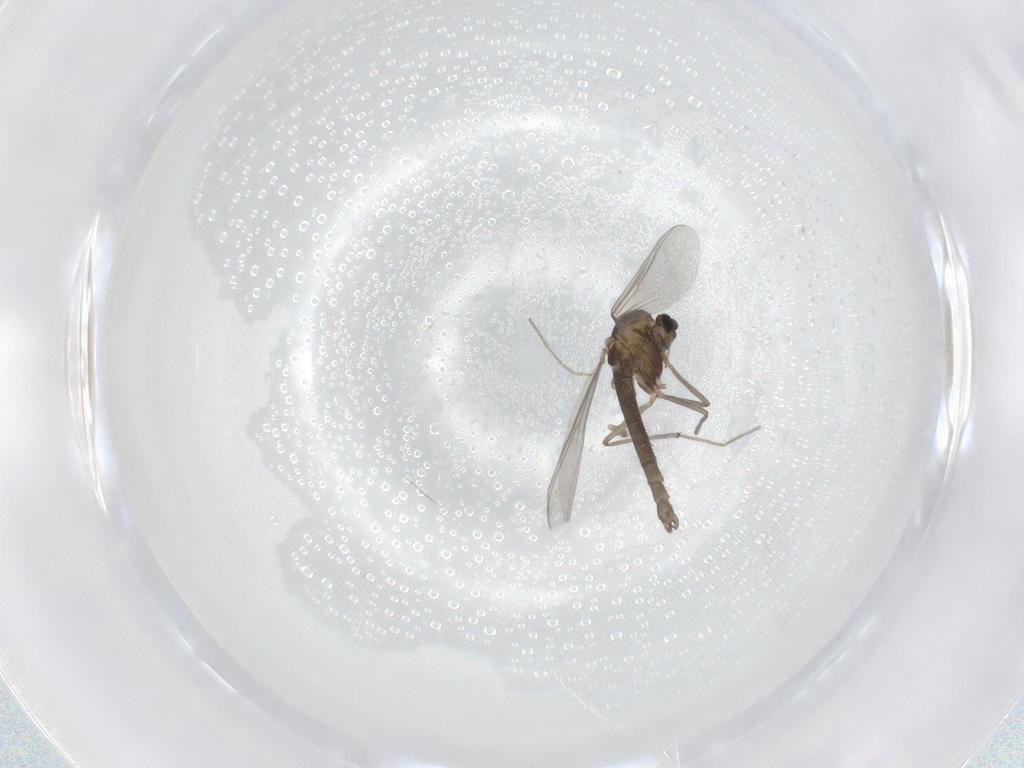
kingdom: Animalia
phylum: Arthropoda
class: Insecta
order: Diptera
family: Chironomidae
